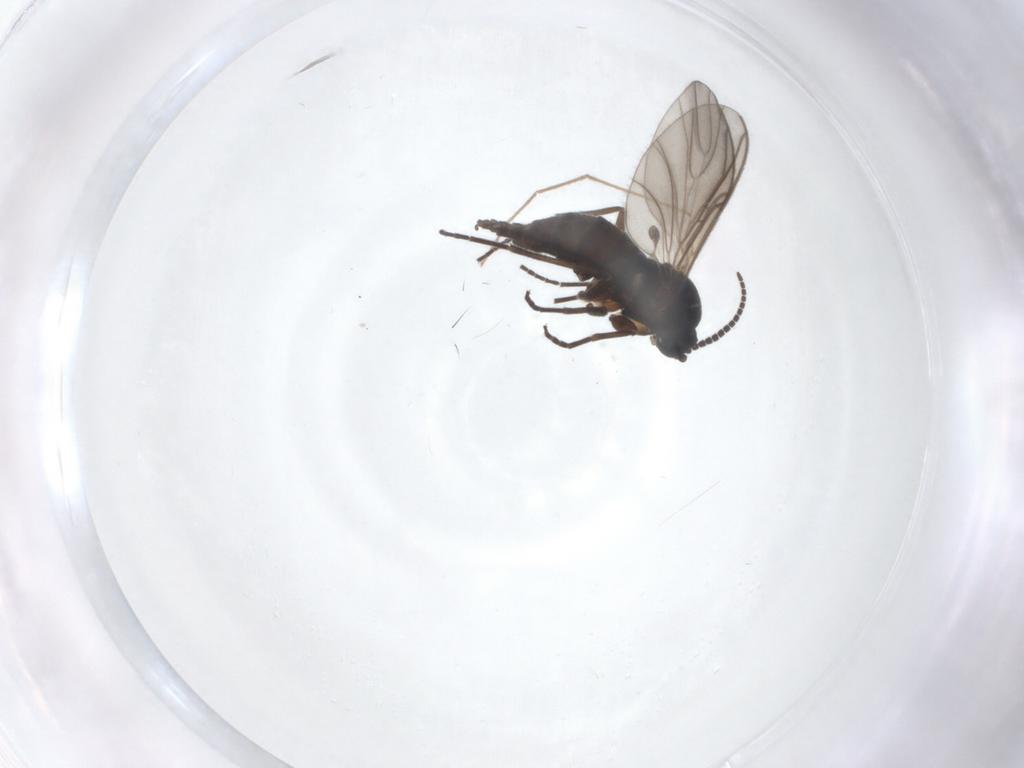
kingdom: Animalia
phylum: Arthropoda
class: Insecta
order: Diptera
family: Sciaridae
